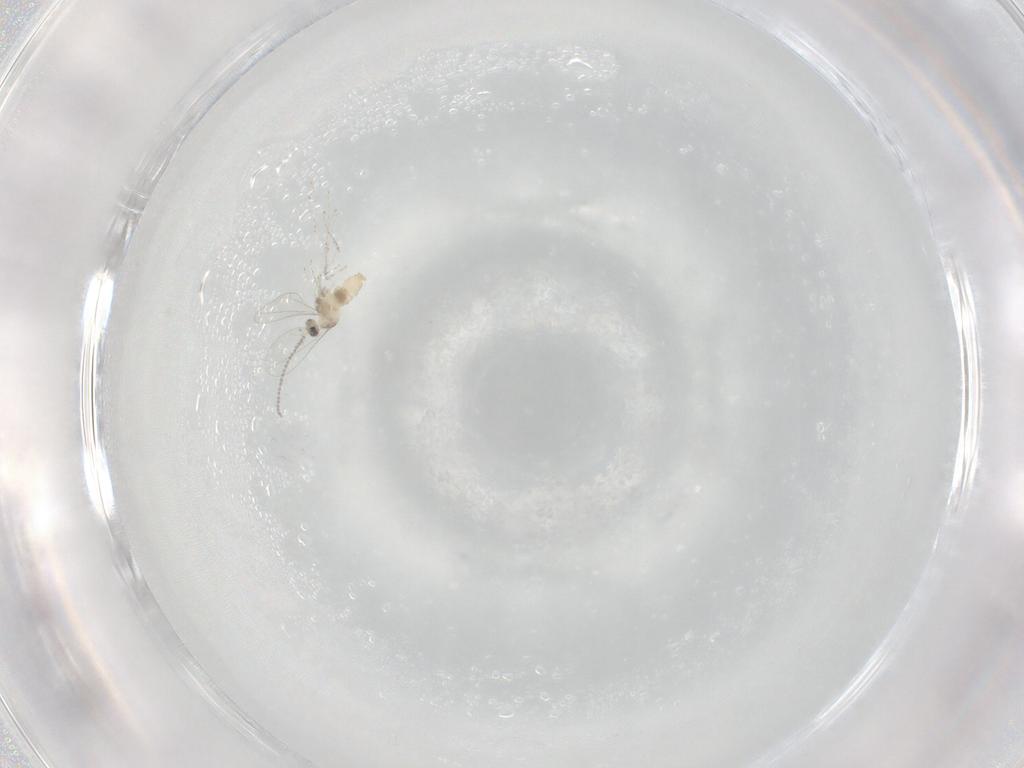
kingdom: Animalia
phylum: Arthropoda
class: Insecta
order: Diptera
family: Cecidomyiidae
